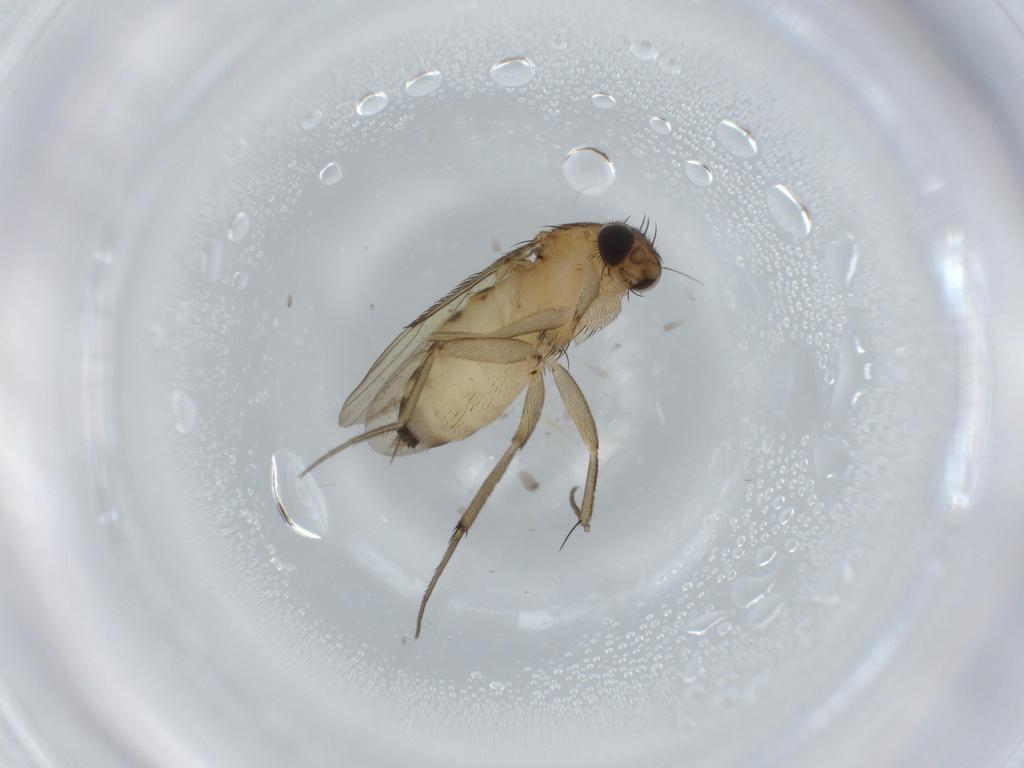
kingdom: Animalia
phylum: Arthropoda
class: Insecta
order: Diptera
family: Phoridae
